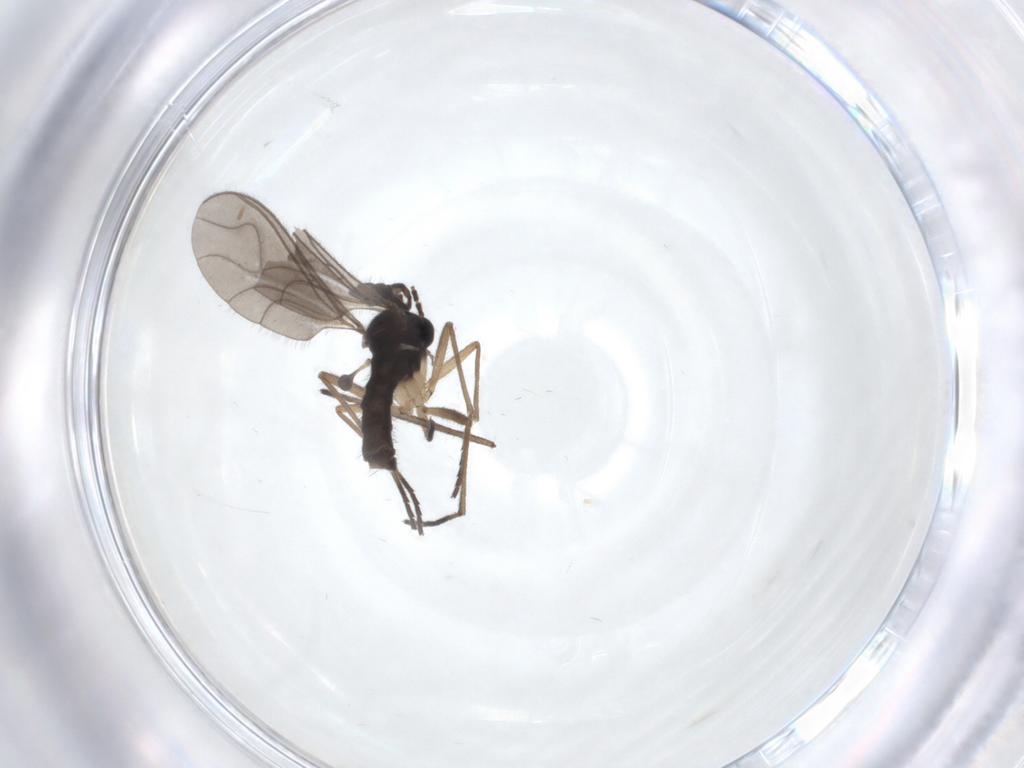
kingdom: Animalia
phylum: Arthropoda
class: Insecta
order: Diptera
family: Sciaridae
